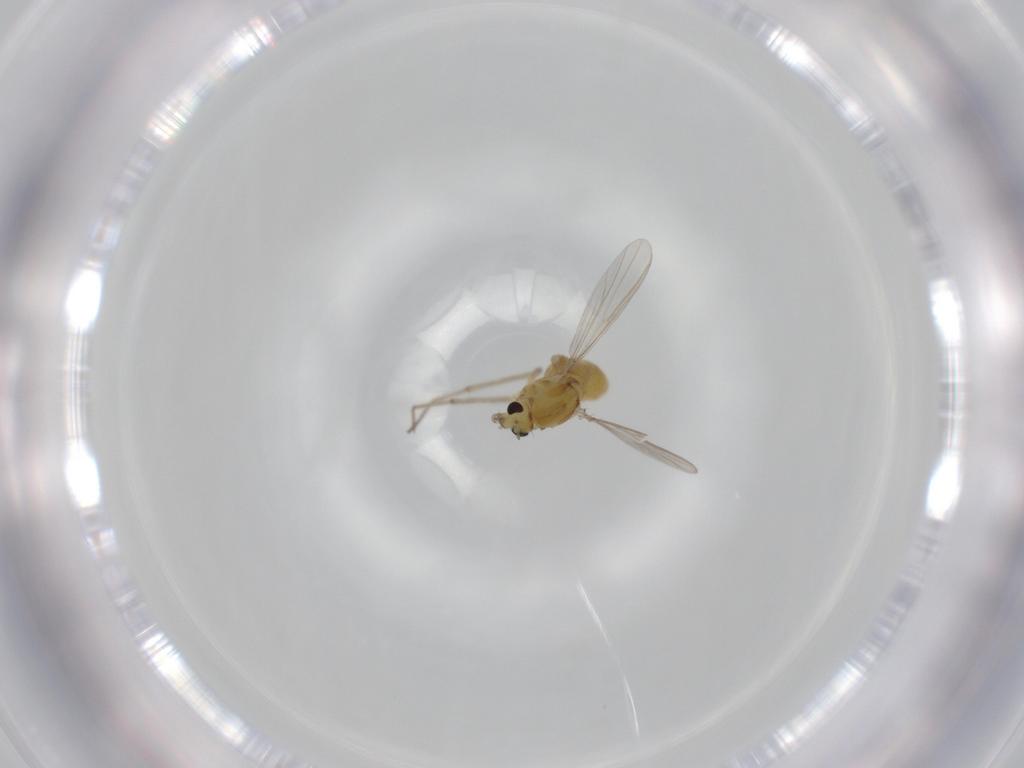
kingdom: Animalia
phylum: Arthropoda
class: Insecta
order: Diptera
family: Chironomidae
